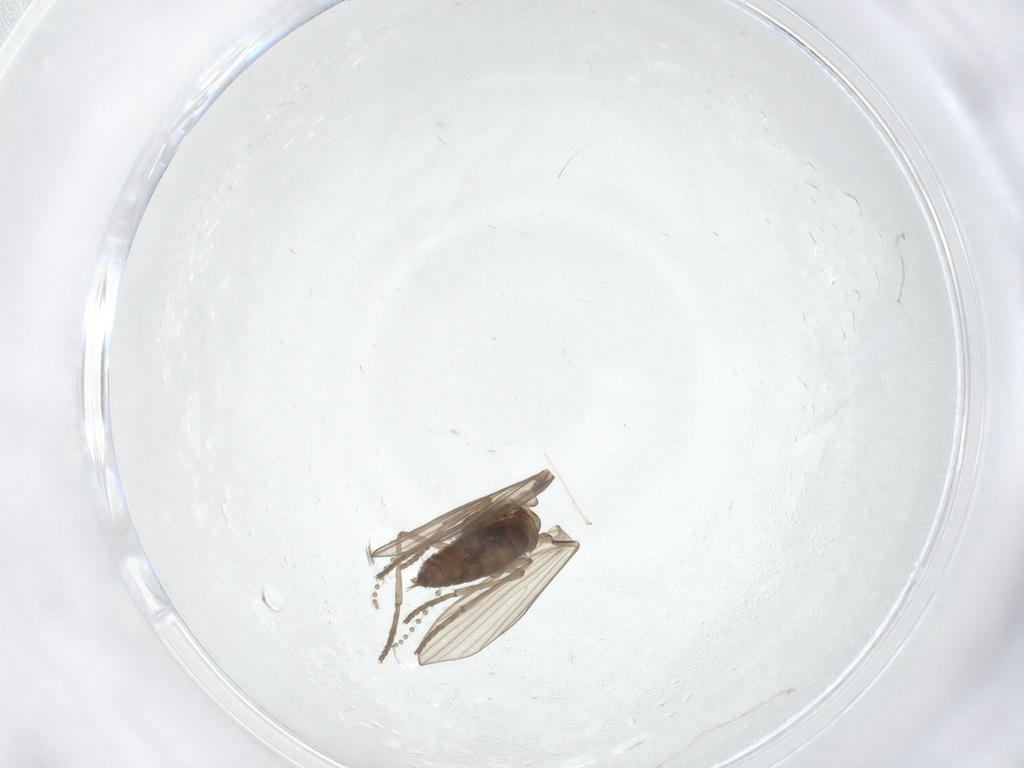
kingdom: Animalia
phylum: Arthropoda
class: Insecta
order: Diptera
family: Psychodidae
